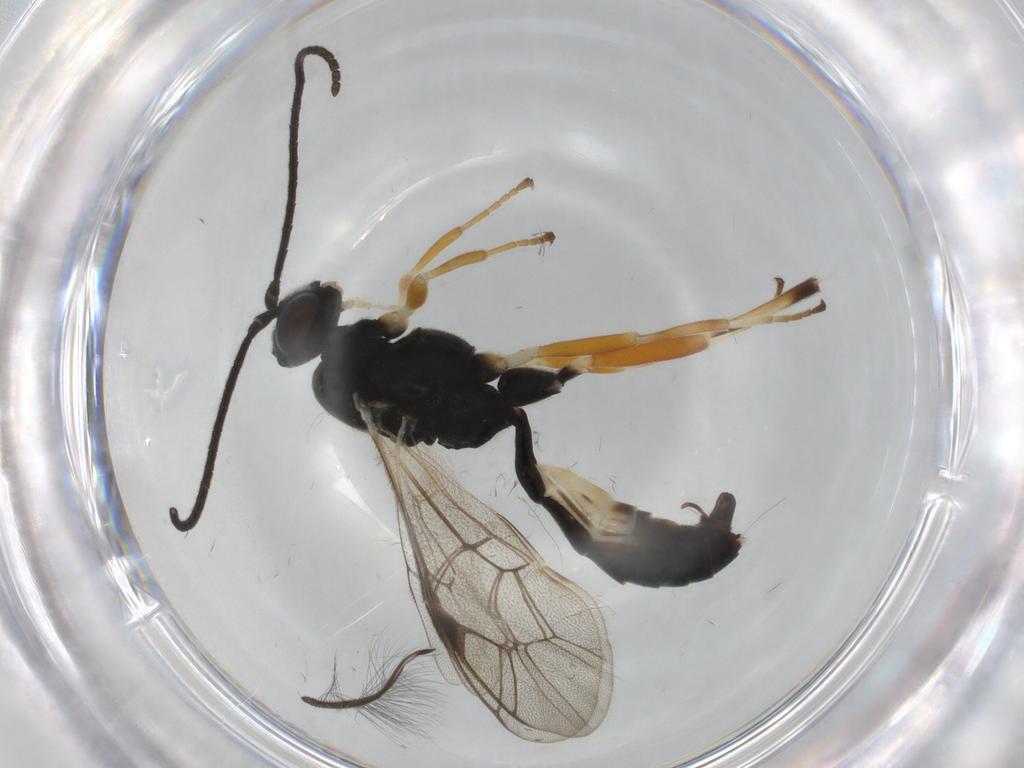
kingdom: Animalia
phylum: Arthropoda
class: Insecta
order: Hymenoptera
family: Ichneumonidae
